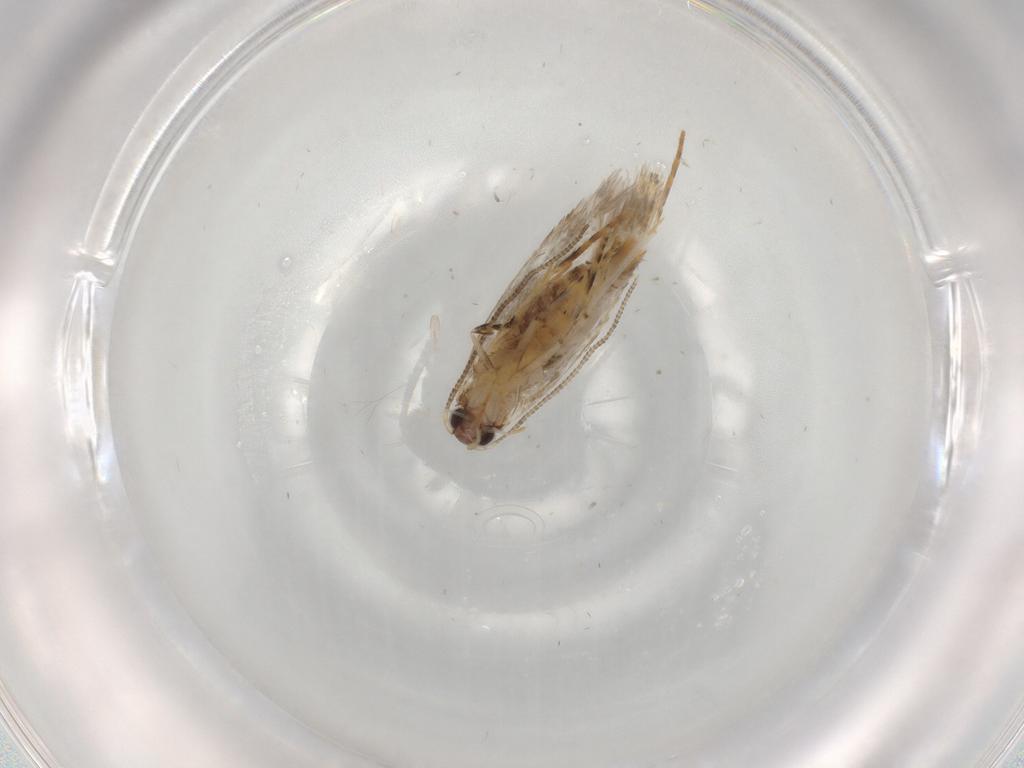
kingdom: Animalia
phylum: Arthropoda
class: Insecta
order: Lepidoptera
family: Tineidae
